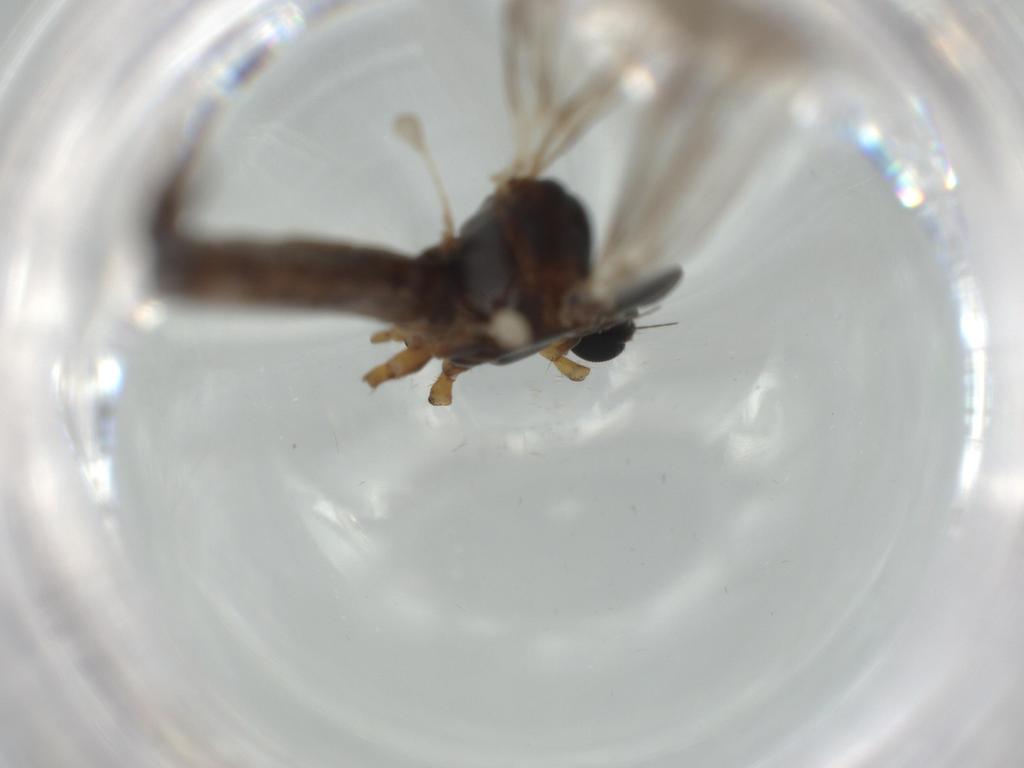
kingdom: Animalia
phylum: Arthropoda
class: Insecta
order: Diptera
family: Phoridae
